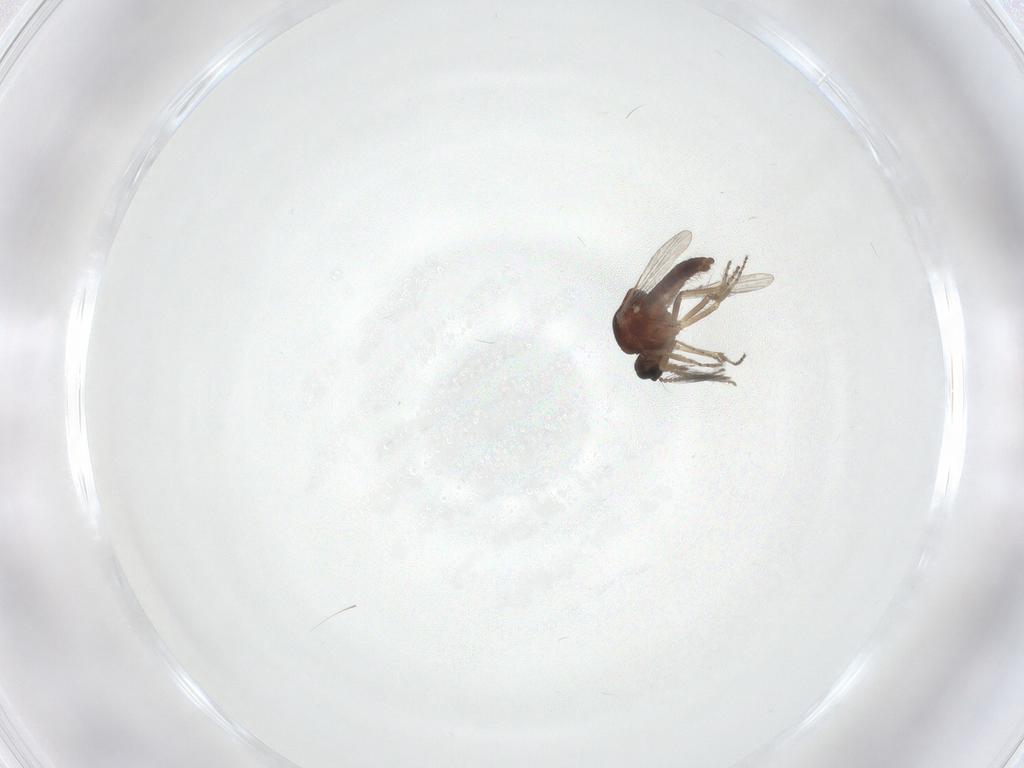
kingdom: Animalia
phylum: Arthropoda
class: Insecta
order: Diptera
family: Ceratopogonidae
